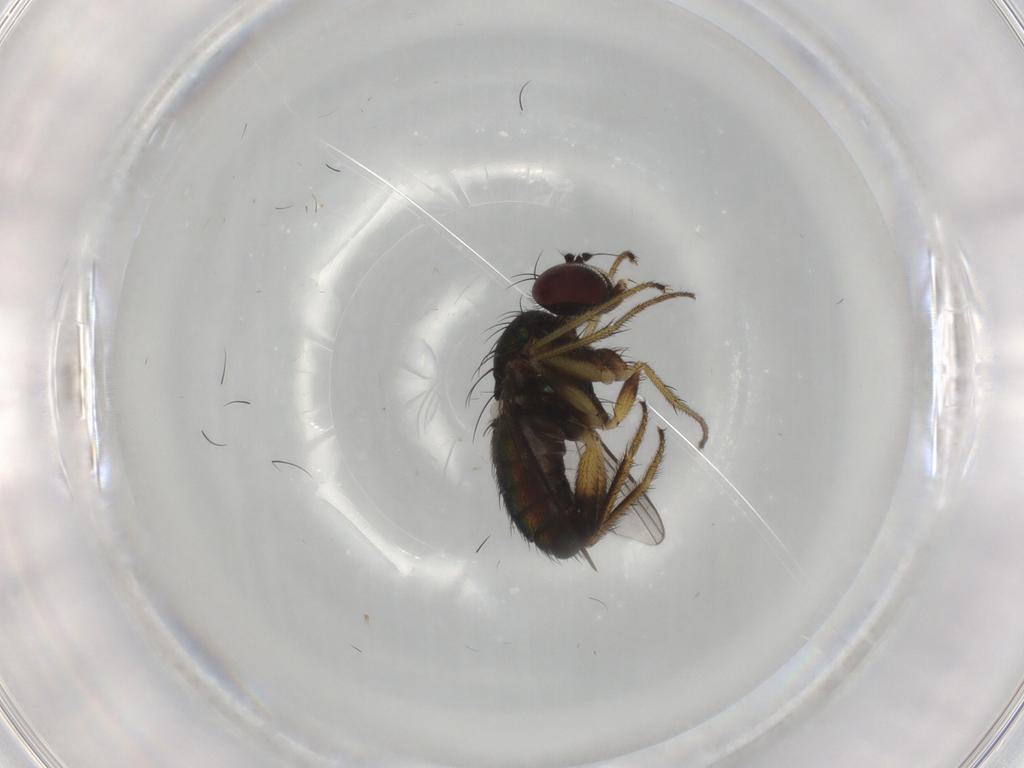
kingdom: Animalia
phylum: Arthropoda
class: Insecta
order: Diptera
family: Dolichopodidae
